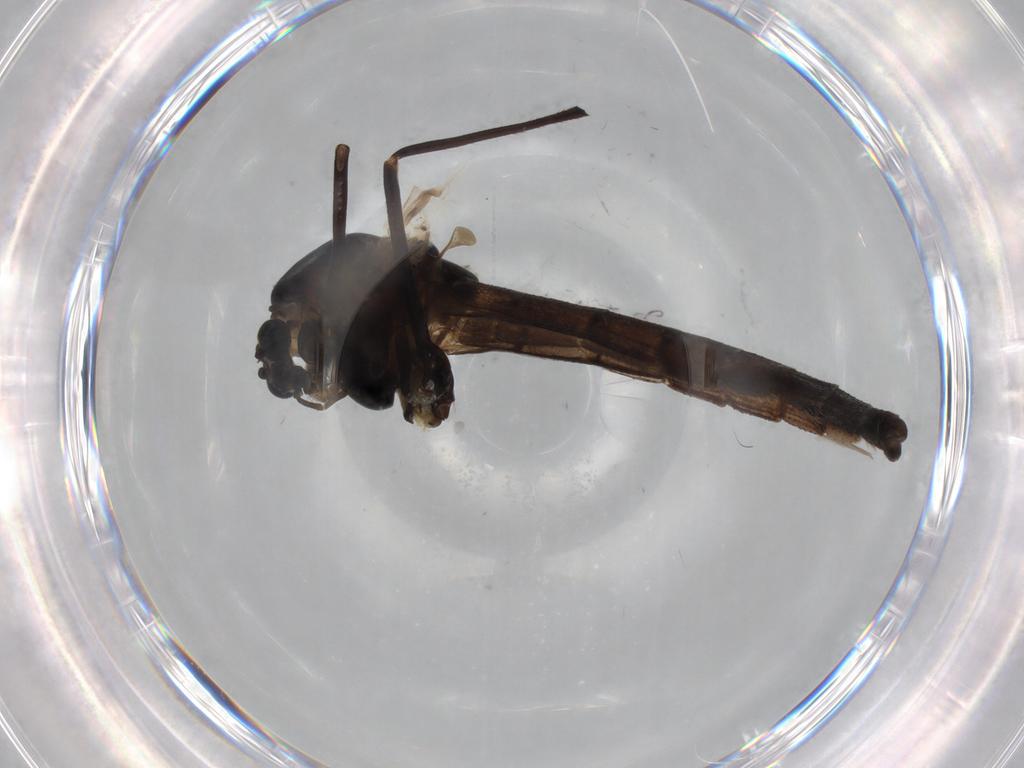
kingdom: Animalia
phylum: Arthropoda
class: Insecta
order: Diptera
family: Chironomidae
